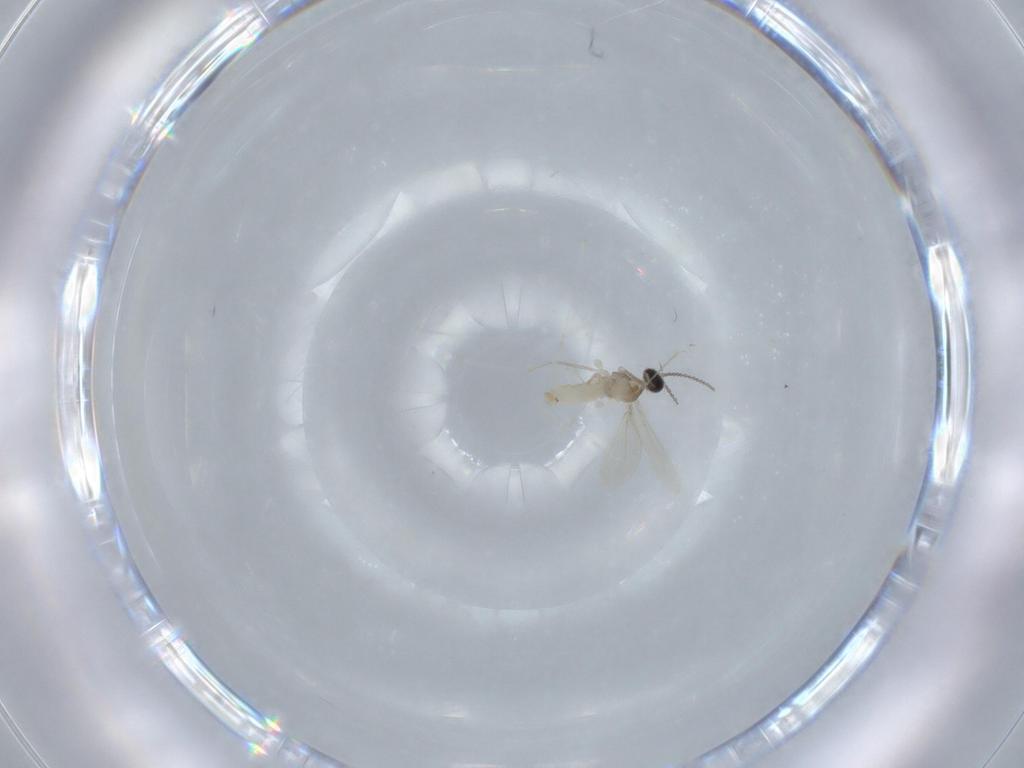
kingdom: Animalia
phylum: Arthropoda
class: Insecta
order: Diptera
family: Cecidomyiidae
